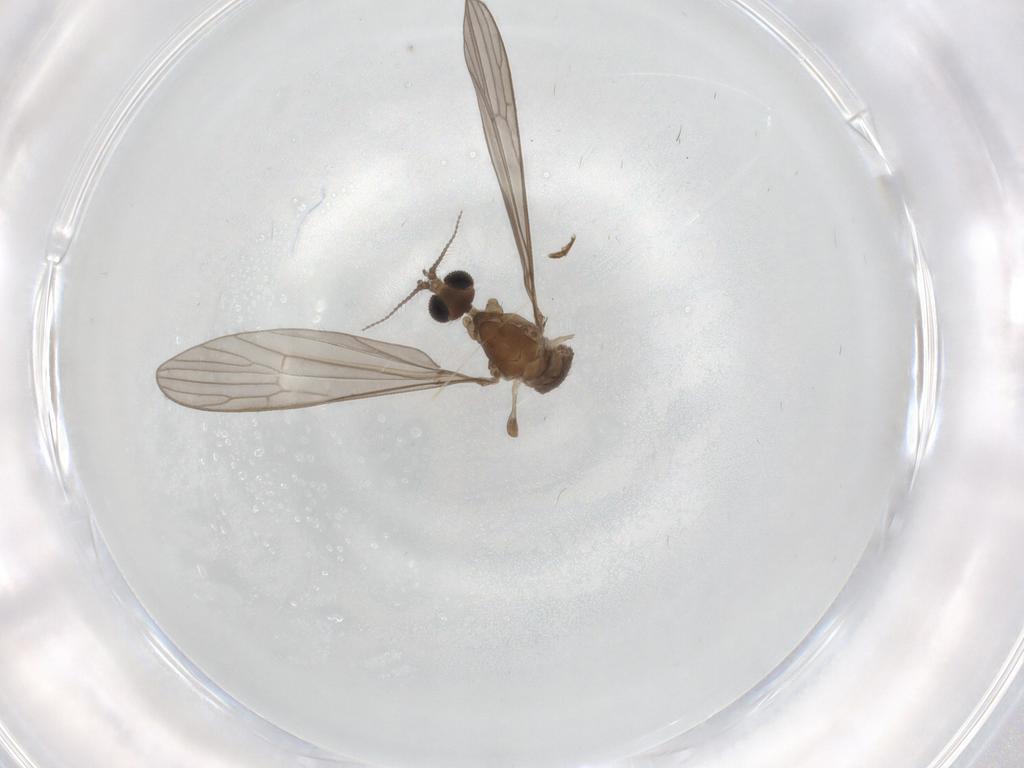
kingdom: Animalia
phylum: Arthropoda
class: Insecta
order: Diptera
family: Limoniidae
